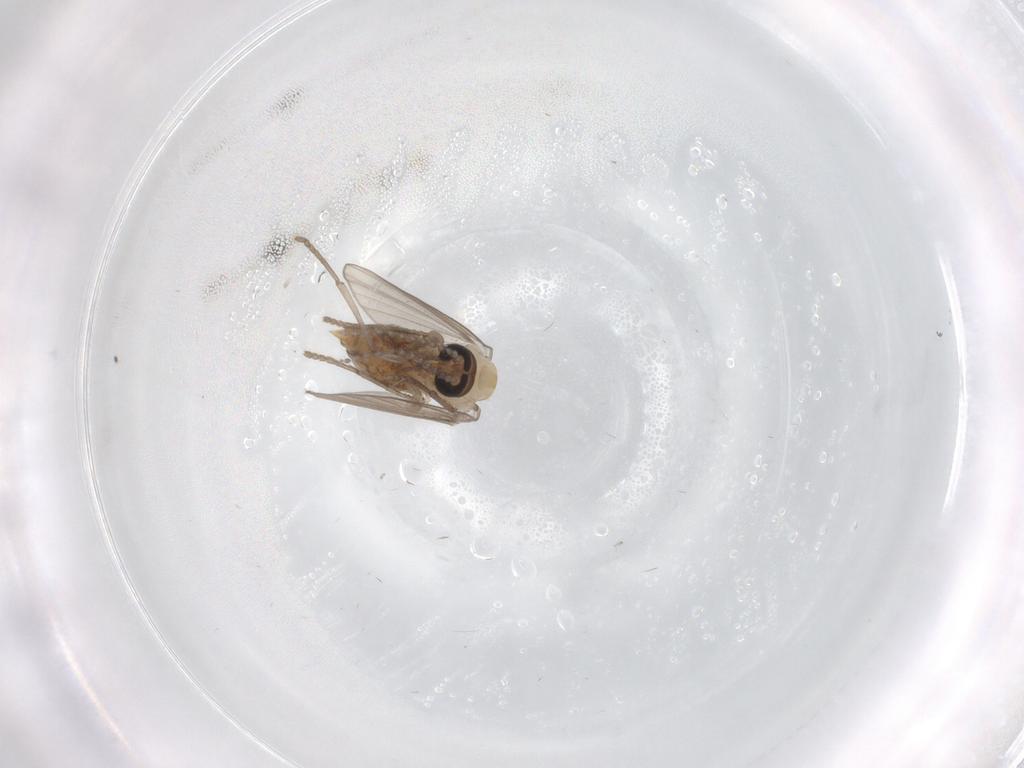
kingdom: Animalia
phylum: Arthropoda
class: Insecta
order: Diptera
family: Psychodidae
